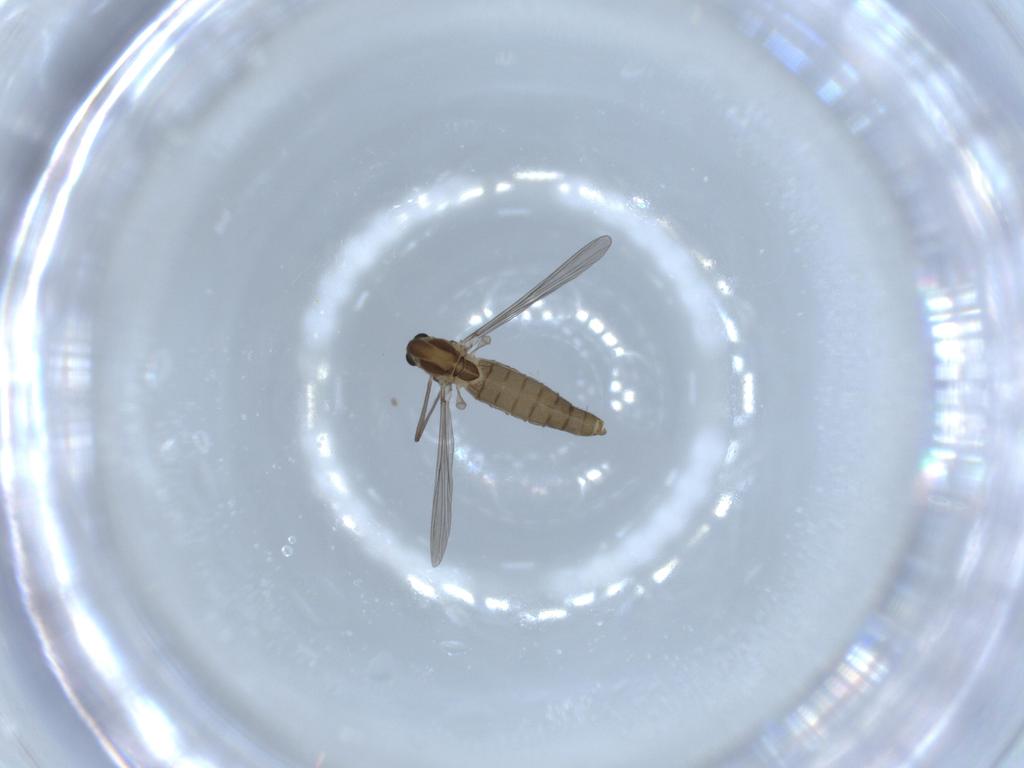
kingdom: Animalia
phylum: Arthropoda
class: Insecta
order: Diptera
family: Chironomidae
